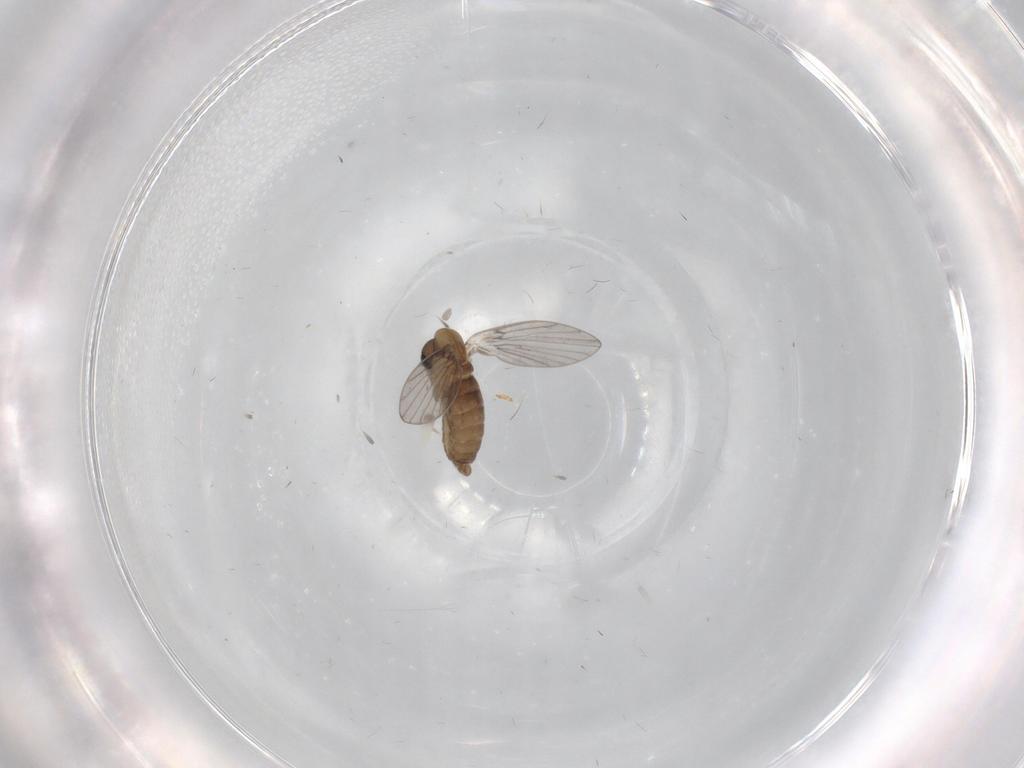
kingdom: Animalia
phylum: Arthropoda
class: Insecta
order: Diptera
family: Psychodidae
